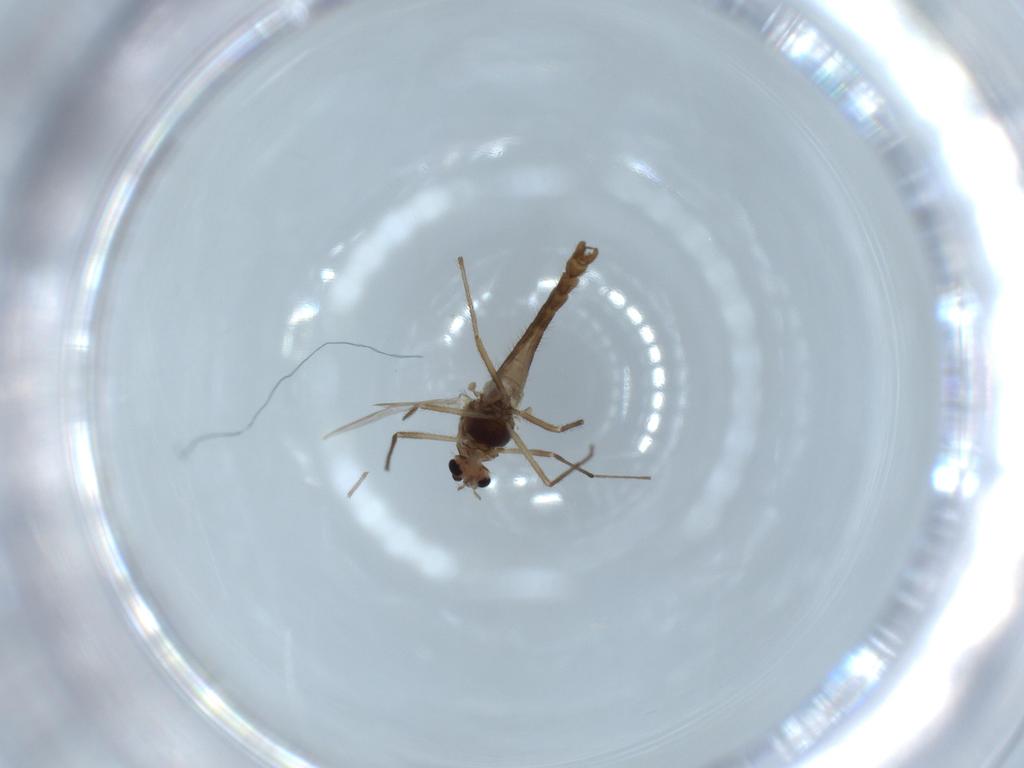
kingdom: Animalia
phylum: Arthropoda
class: Insecta
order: Diptera
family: Chironomidae
